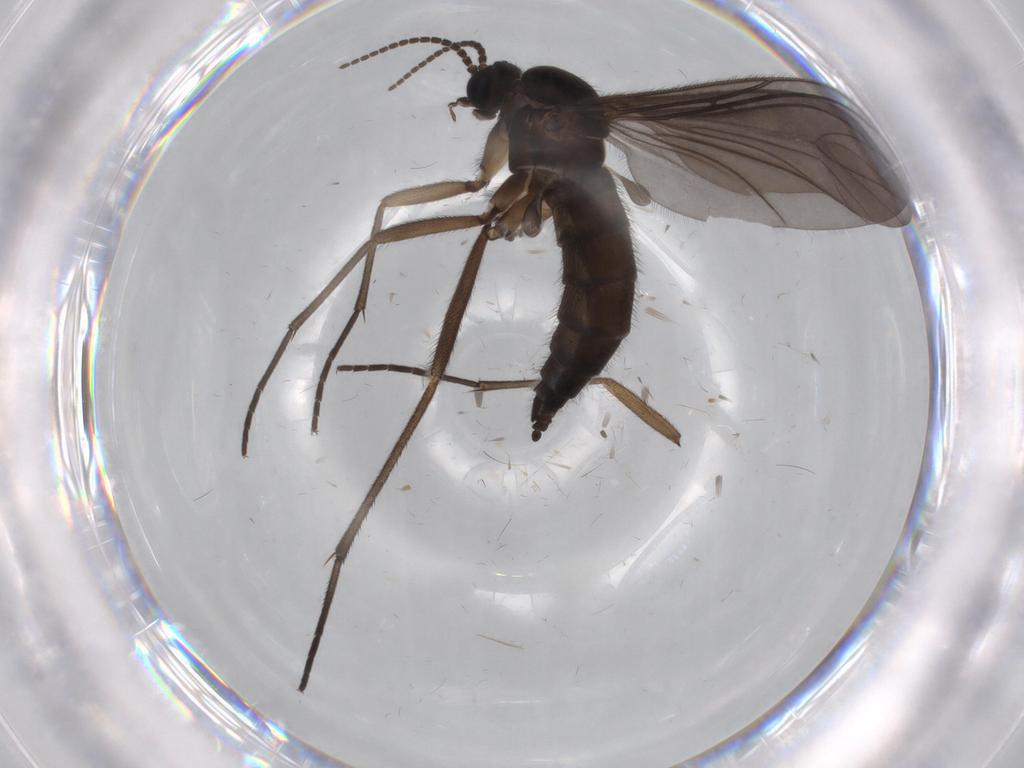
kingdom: Animalia
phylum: Arthropoda
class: Insecta
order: Diptera
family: Sciaridae
